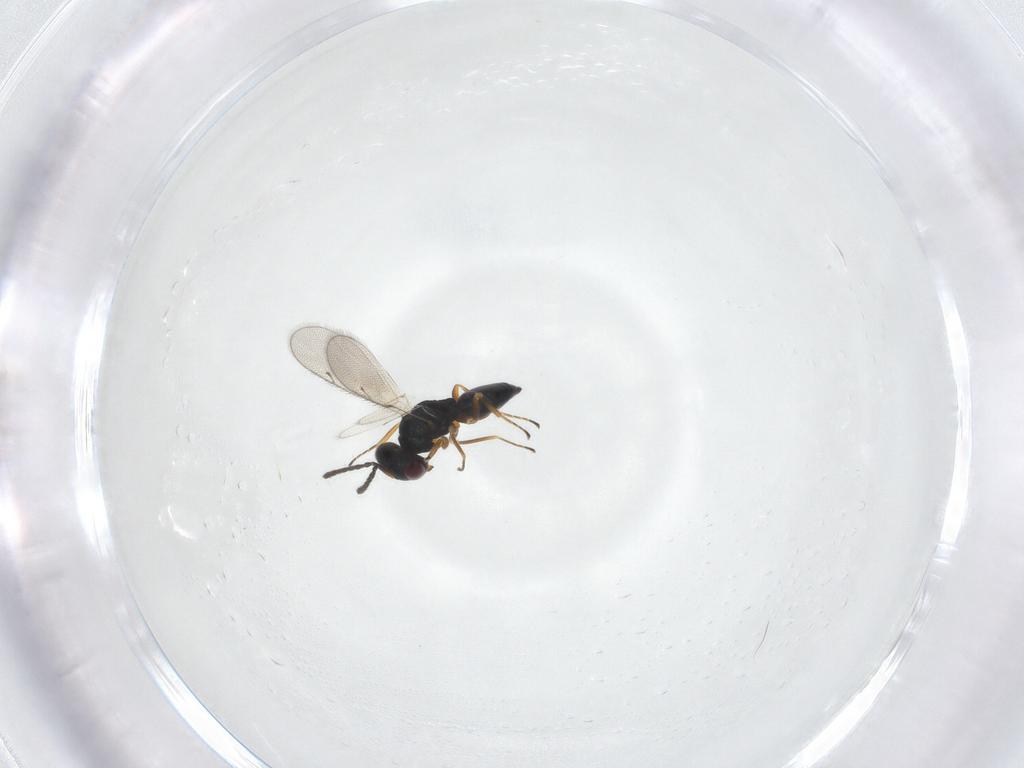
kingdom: Animalia
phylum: Arthropoda
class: Insecta
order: Hymenoptera
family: Pteromalidae
